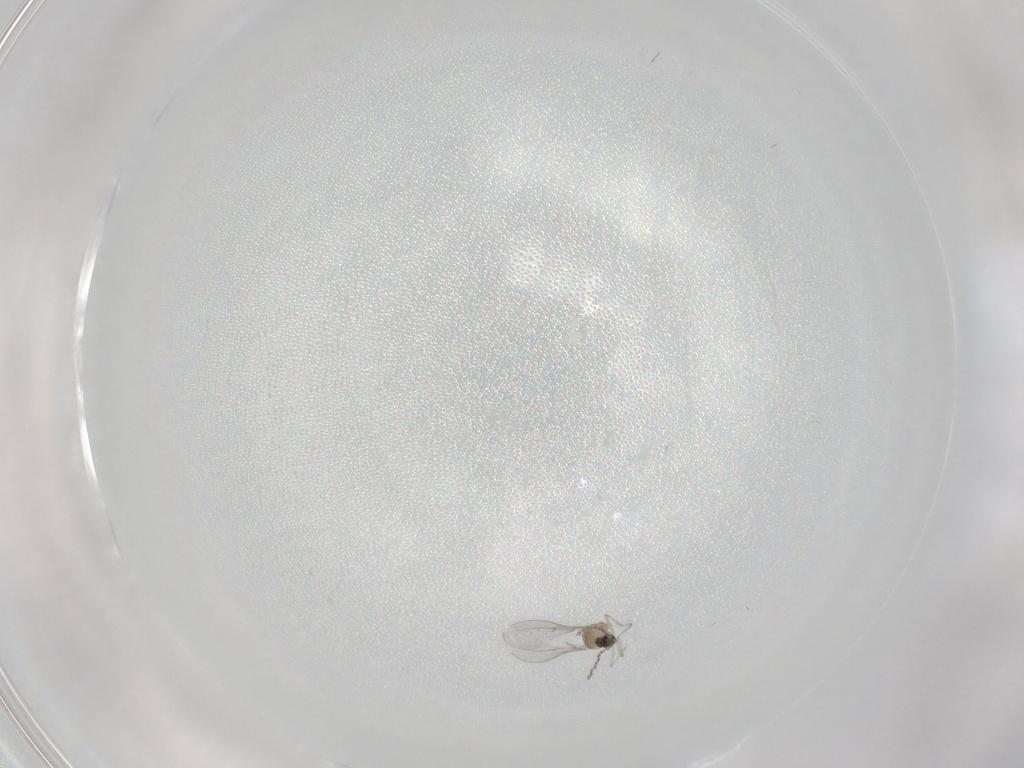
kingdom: Animalia
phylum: Arthropoda
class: Insecta
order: Diptera
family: Cecidomyiidae
